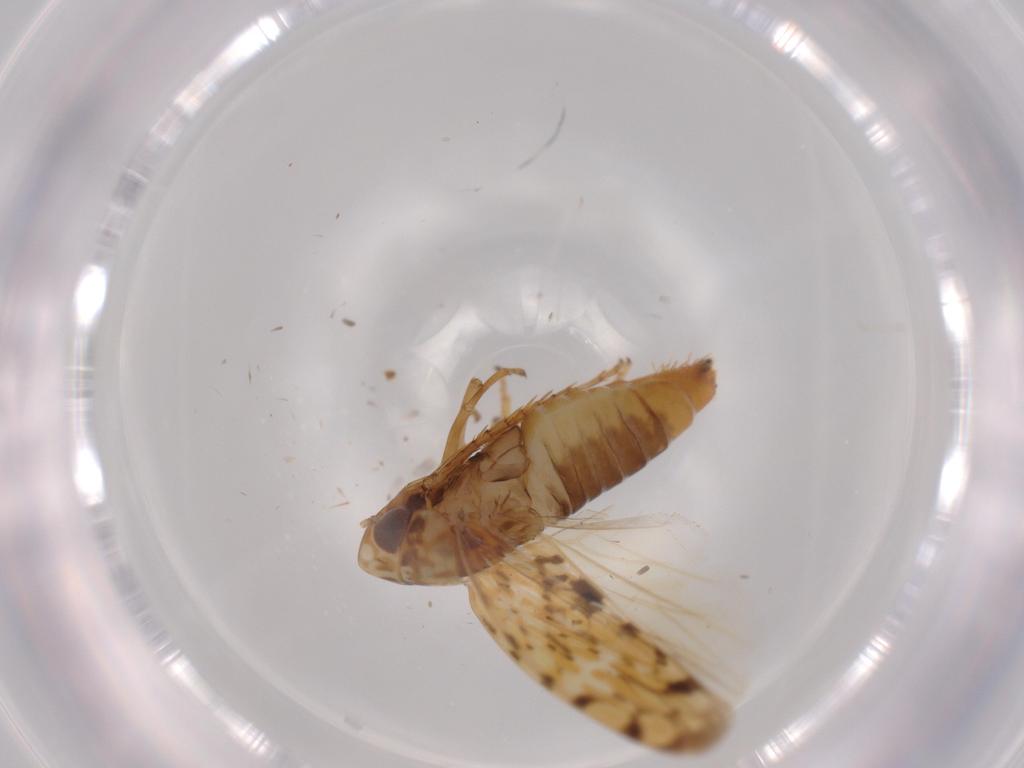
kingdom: Animalia
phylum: Arthropoda
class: Insecta
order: Hemiptera
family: Cicadellidae
